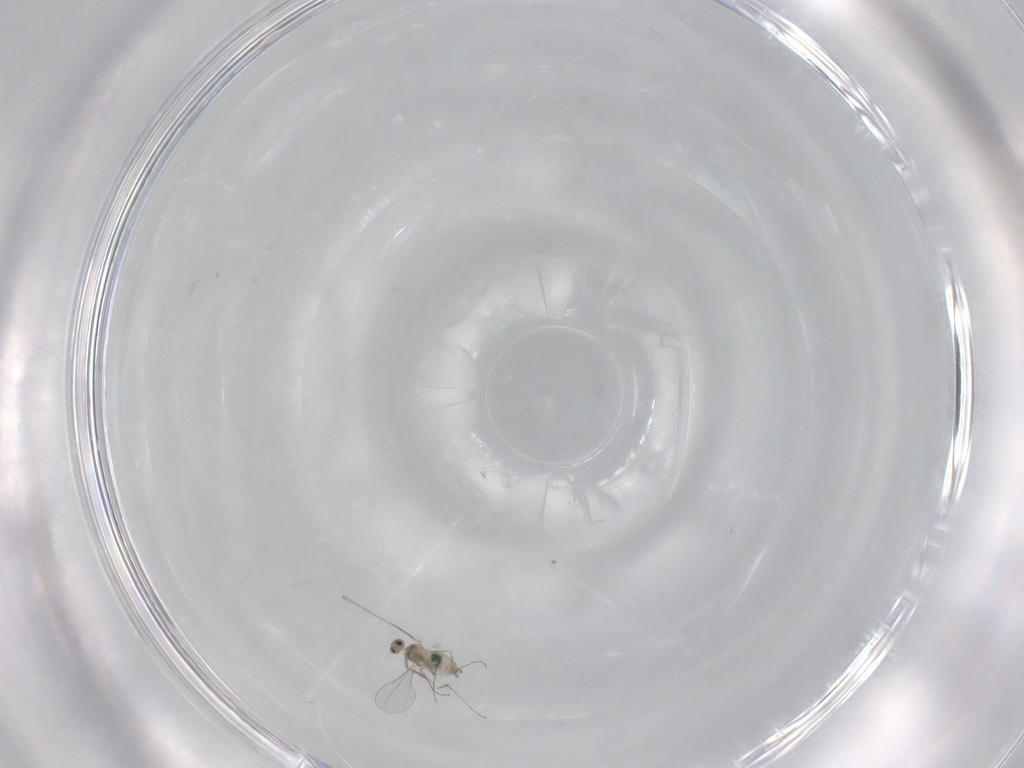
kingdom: Animalia
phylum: Arthropoda
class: Insecta
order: Diptera
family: Cecidomyiidae
